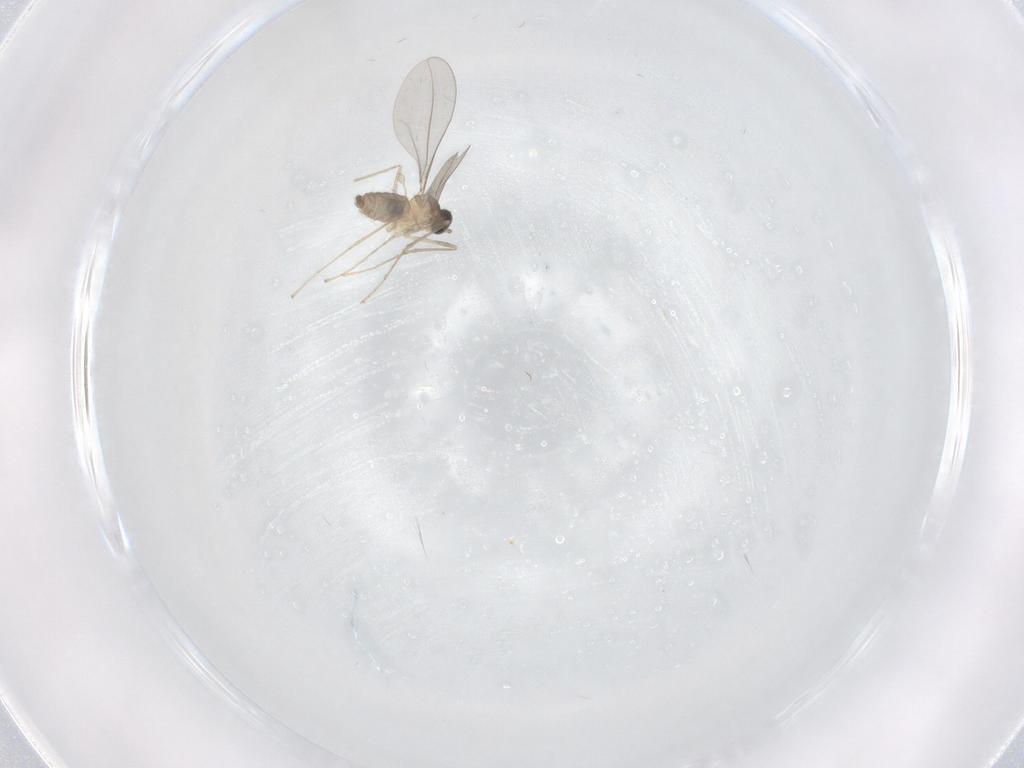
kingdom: Animalia
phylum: Arthropoda
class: Insecta
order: Diptera
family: Cecidomyiidae
